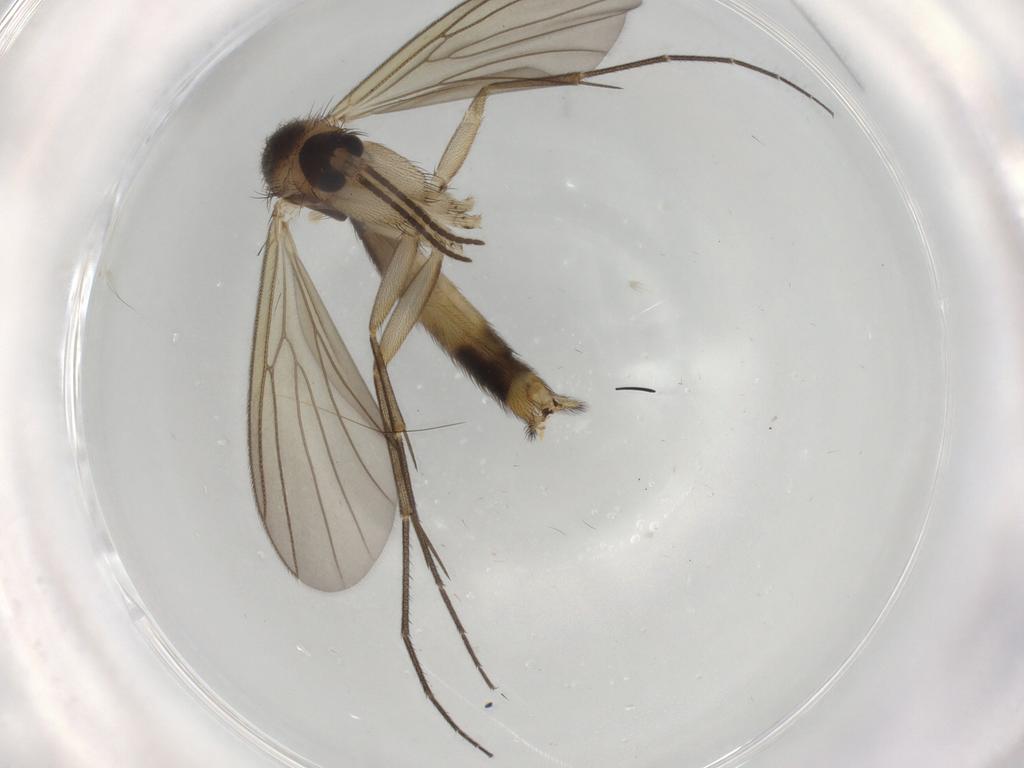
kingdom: Animalia
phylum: Arthropoda
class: Insecta
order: Diptera
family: Mycetophilidae
